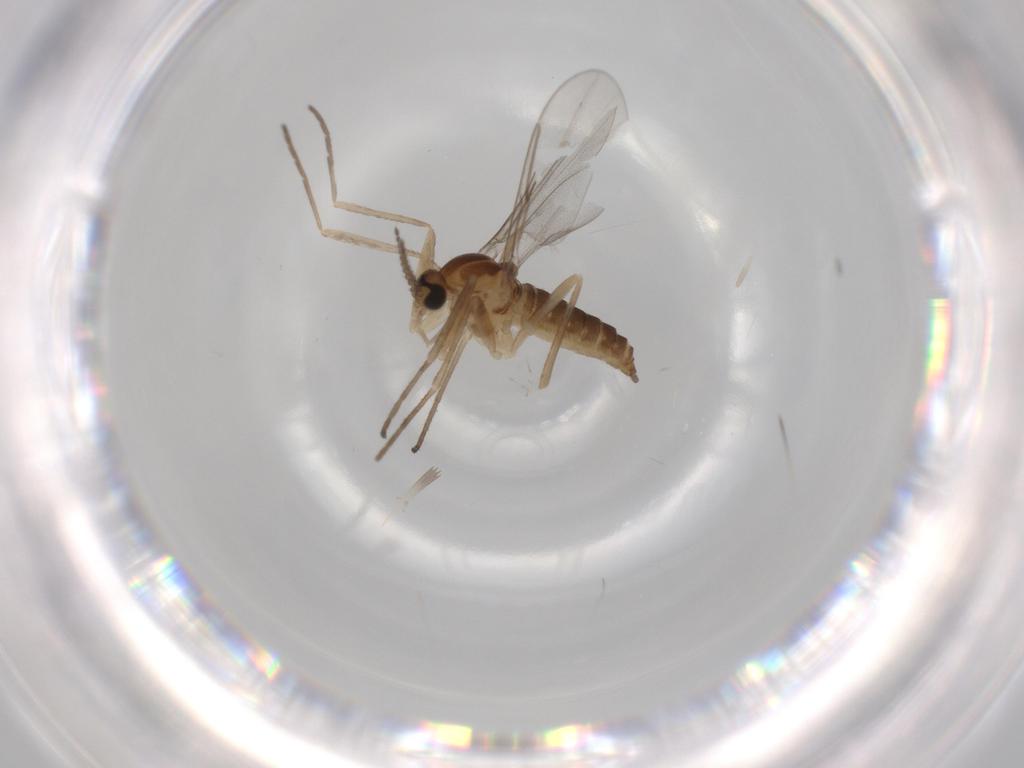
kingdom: Animalia
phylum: Arthropoda
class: Insecta
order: Diptera
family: Cecidomyiidae
